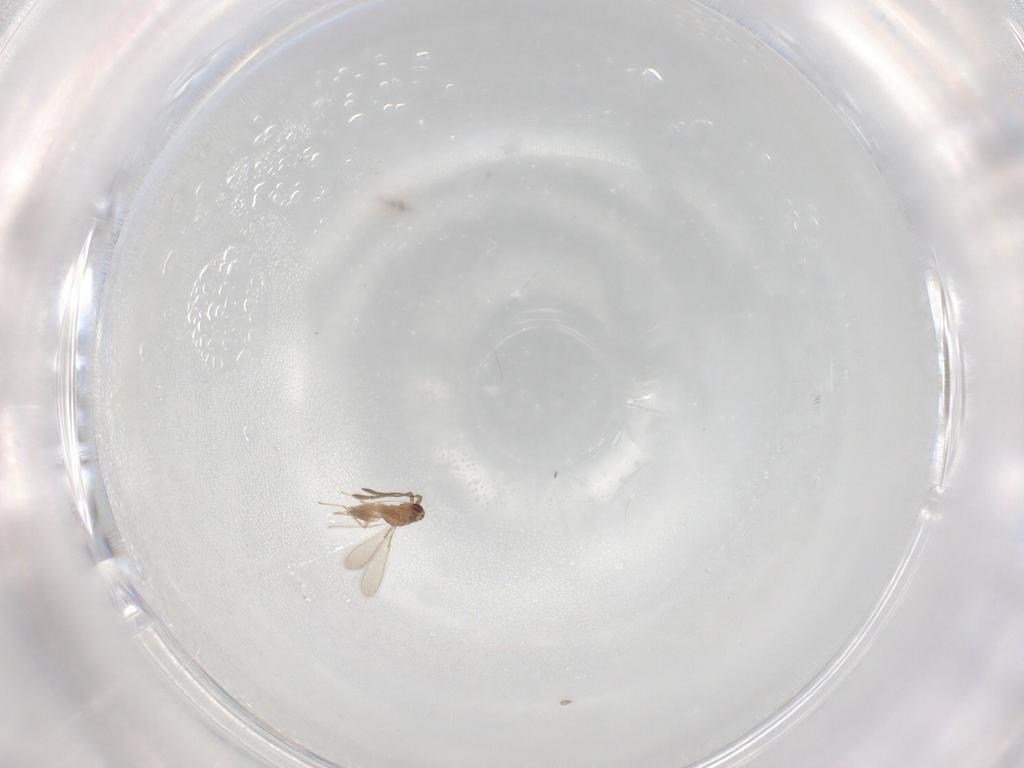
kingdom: Animalia
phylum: Arthropoda
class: Insecta
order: Hymenoptera
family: Mymaridae
